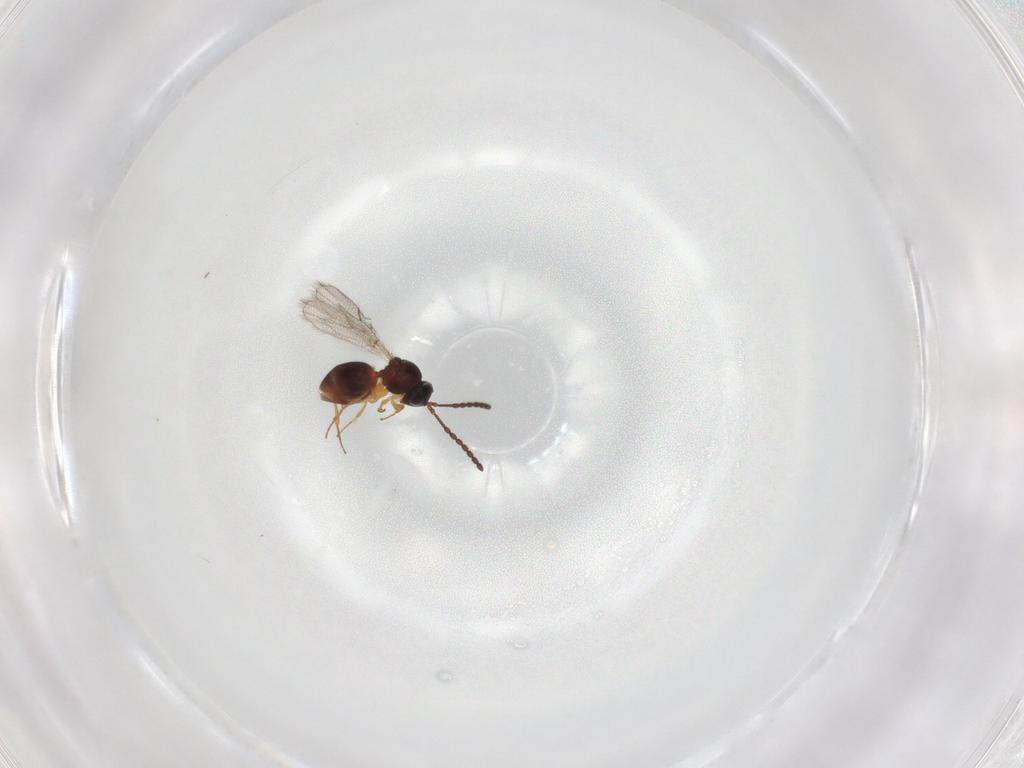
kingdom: Animalia
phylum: Arthropoda
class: Insecta
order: Hymenoptera
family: Figitidae
